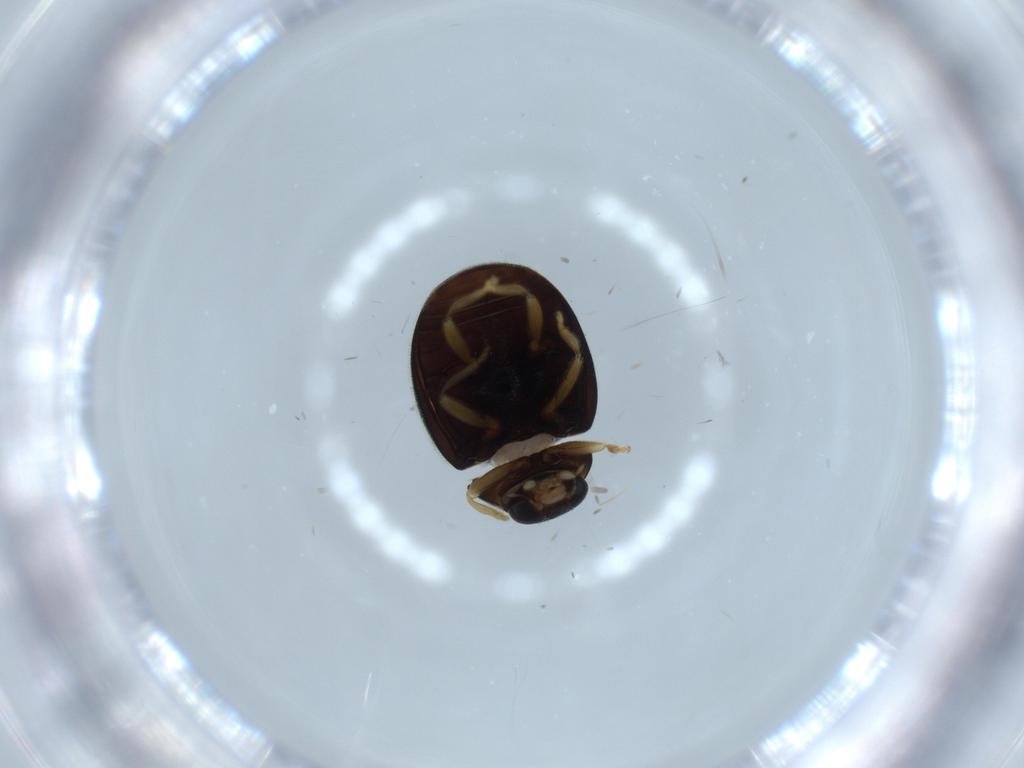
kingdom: Animalia
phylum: Arthropoda
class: Insecta
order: Coleoptera
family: Coccinellidae
